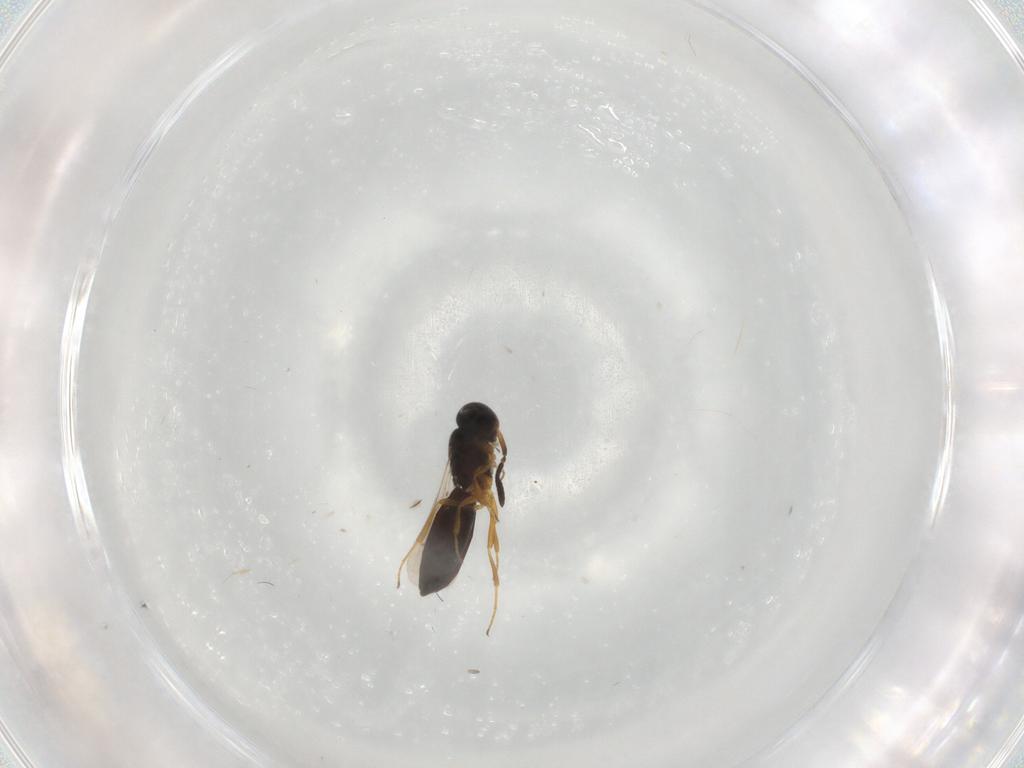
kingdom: Animalia
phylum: Arthropoda
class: Insecta
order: Hymenoptera
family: Scelionidae
